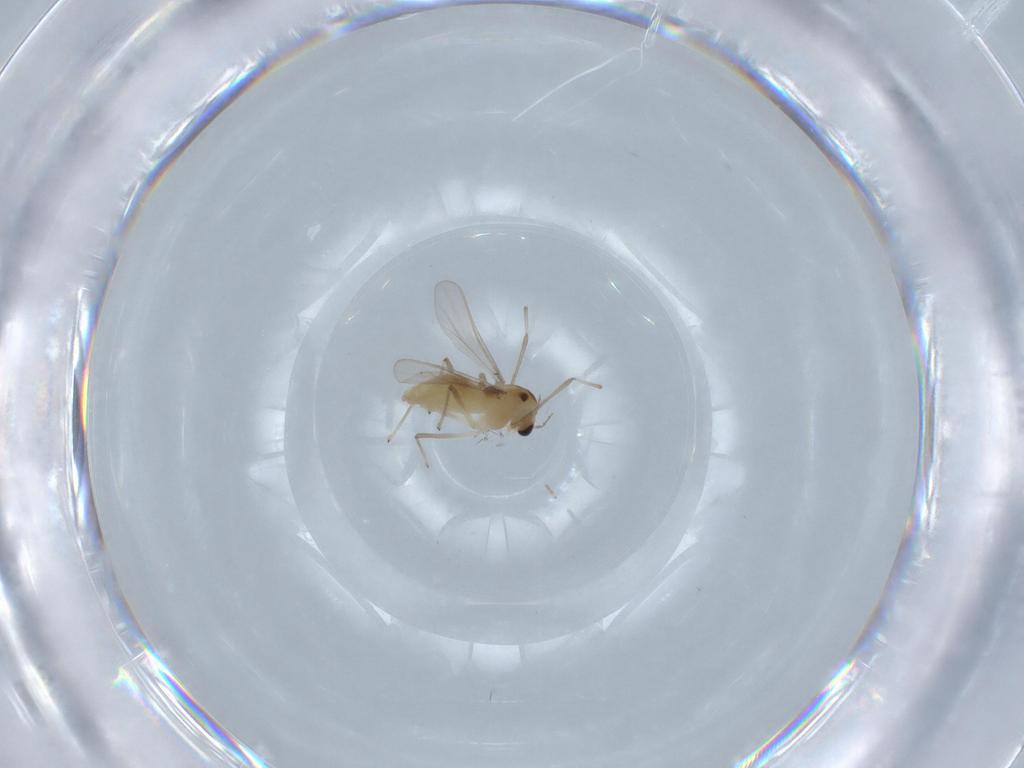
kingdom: Animalia
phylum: Arthropoda
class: Insecta
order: Diptera
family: Chironomidae
